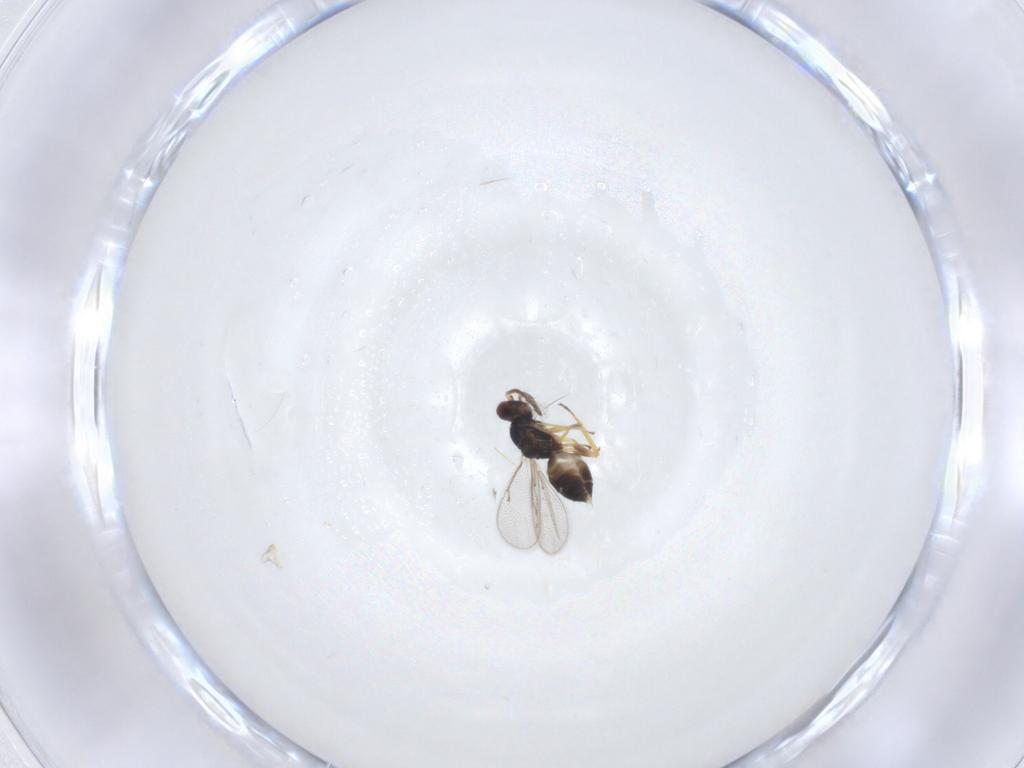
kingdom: Animalia
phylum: Arthropoda
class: Insecta
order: Hymenoptera
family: Eulophidae
